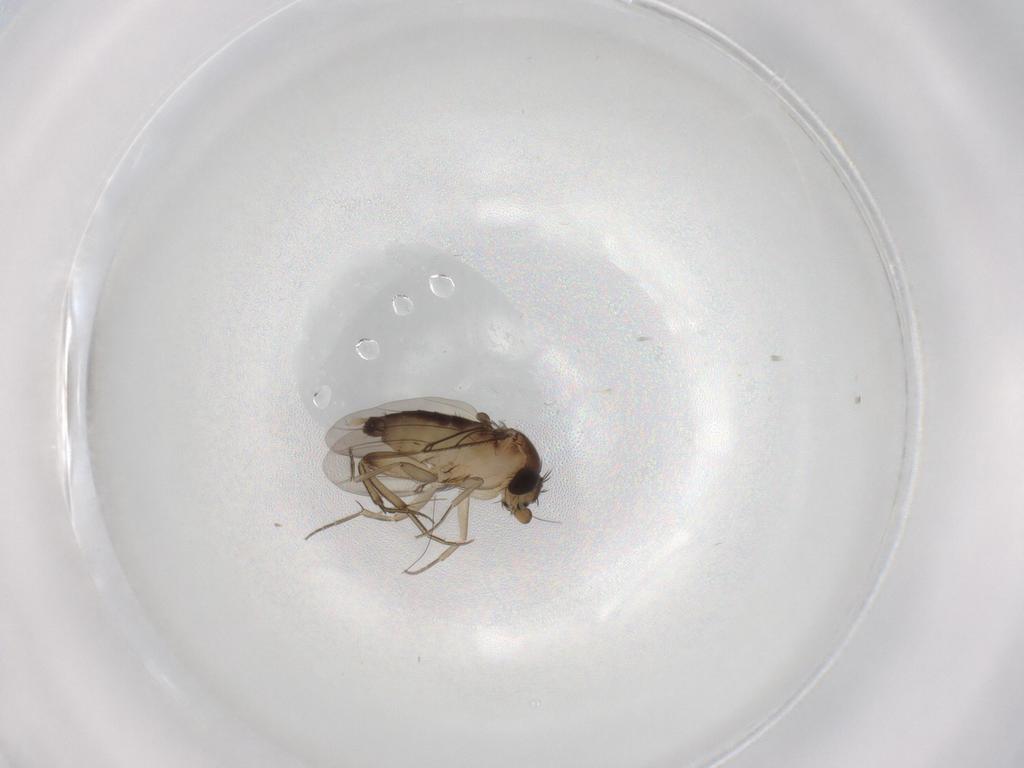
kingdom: Animalia
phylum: Arthropoda
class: Insecta
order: Diptera
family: Phoridae
